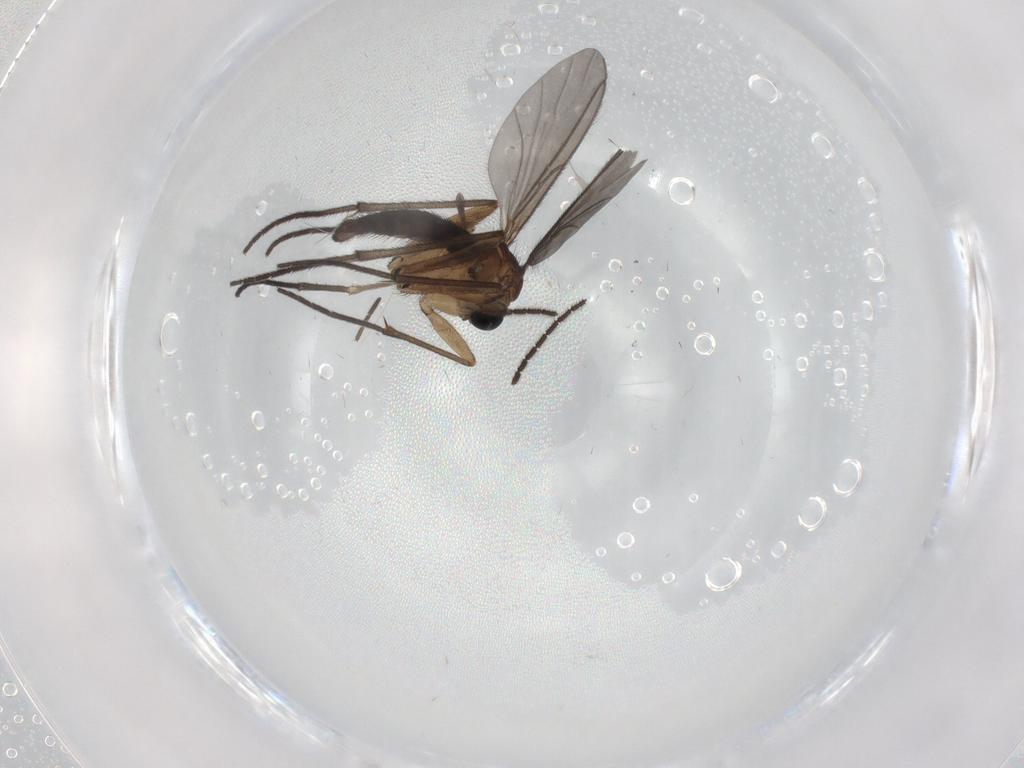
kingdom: Animalia
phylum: Arthropoda
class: Insecta
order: Diptera
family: Sciaridae
